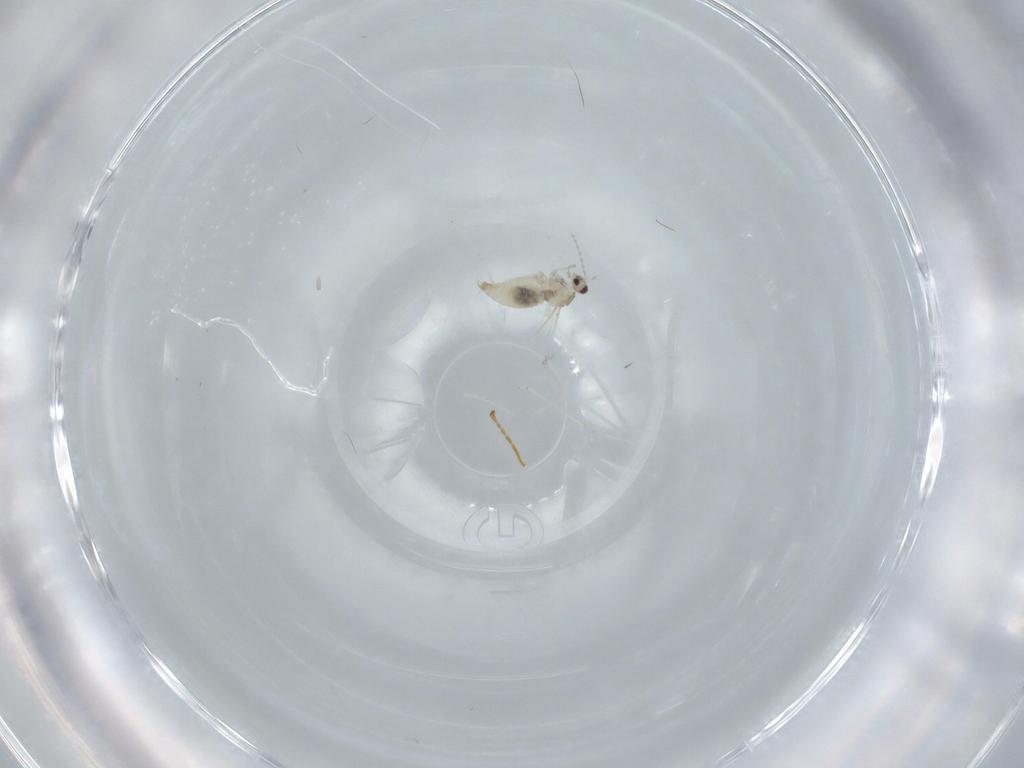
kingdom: Animalia
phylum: Arthropoda
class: Insecta
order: Diptera
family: Cecidomyiidae
